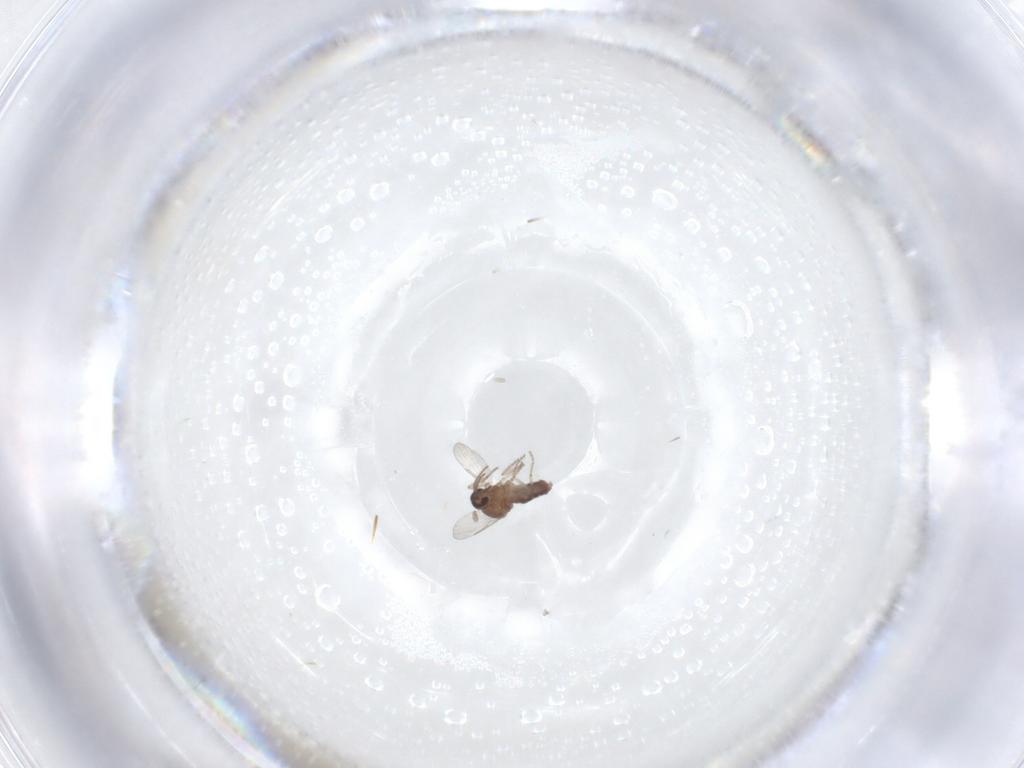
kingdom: Animalia
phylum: Arthropoda
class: Insecta
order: Diptera
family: Ceratopogonidae
